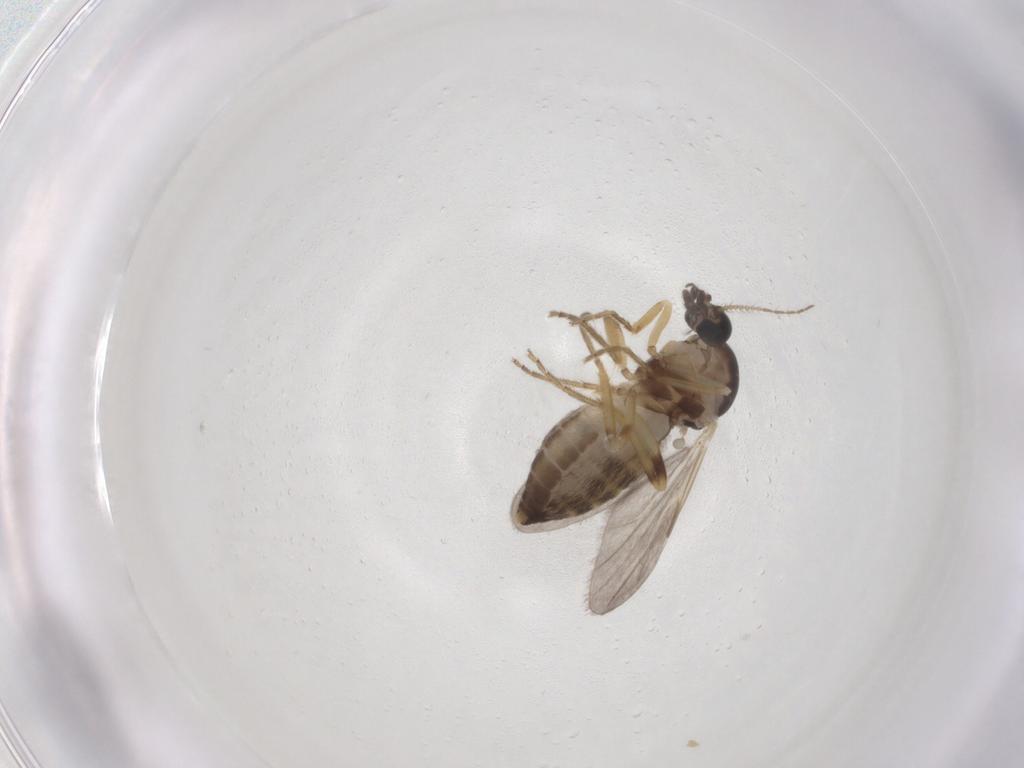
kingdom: Animalia
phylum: Arthropoda
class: Insecta
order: Diptera
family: Ceratopogonidae
